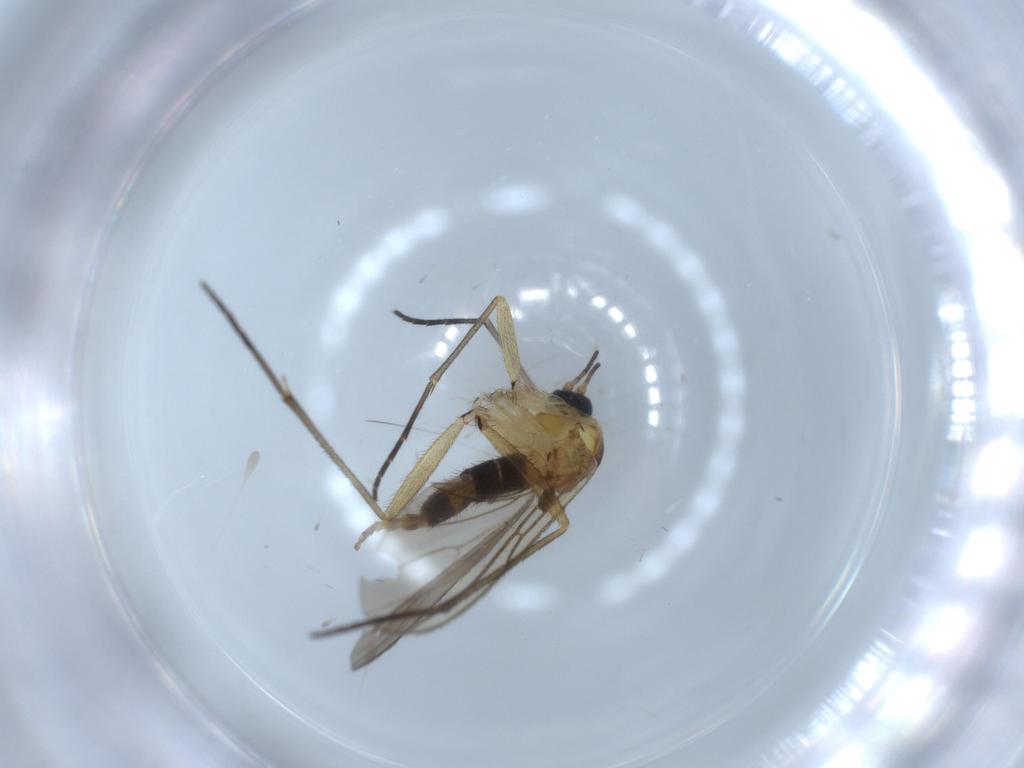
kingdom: Animalia
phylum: Arthropoda
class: Insecta
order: Diptera
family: Sciaridae
